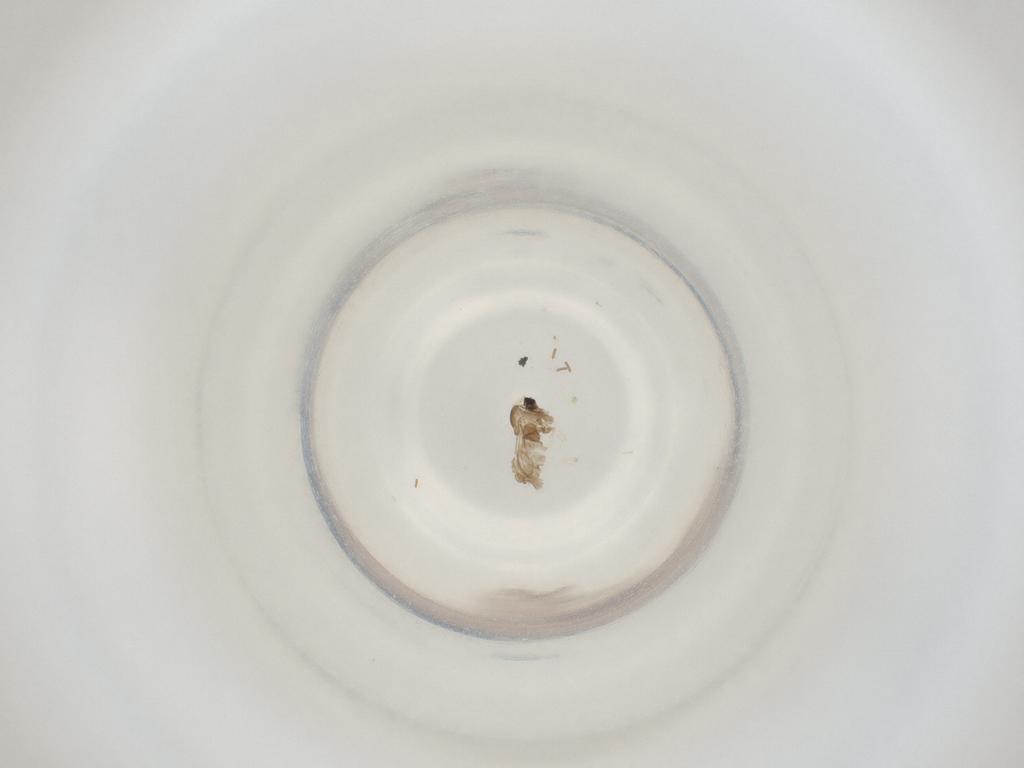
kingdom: Animalia
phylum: Arthropoda
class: Insecta
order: Diptera
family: Cecidomyiidae
